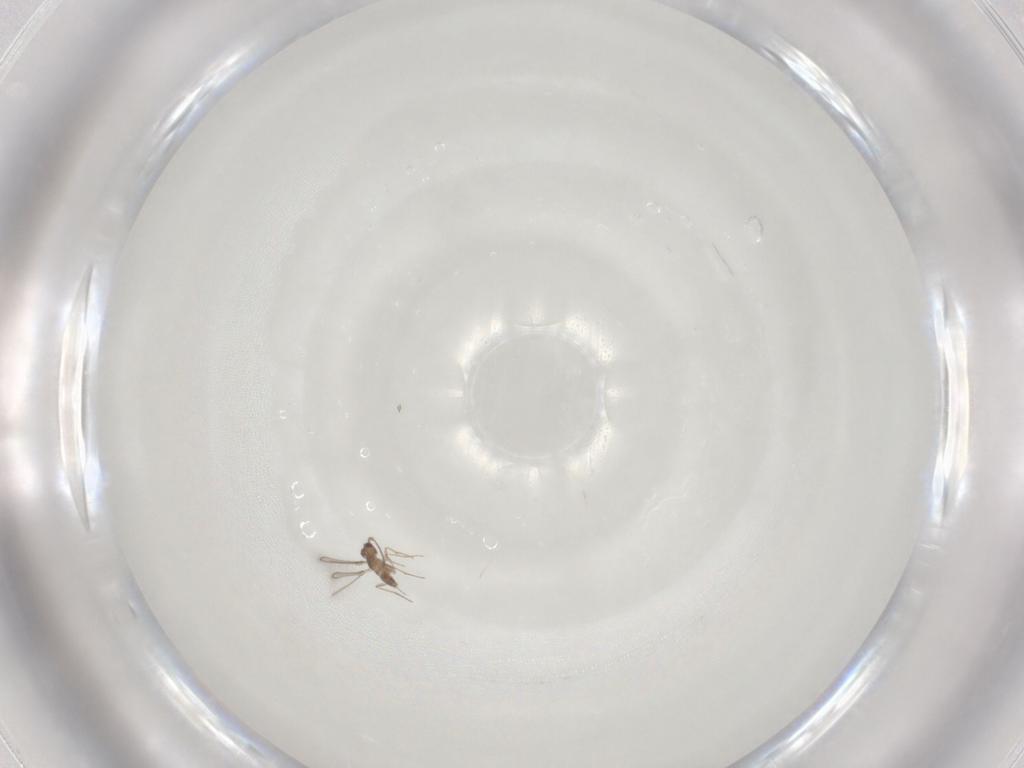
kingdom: Animalia
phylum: Arthropoda
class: Insecta
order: Hymenoptera
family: Mymaridae
